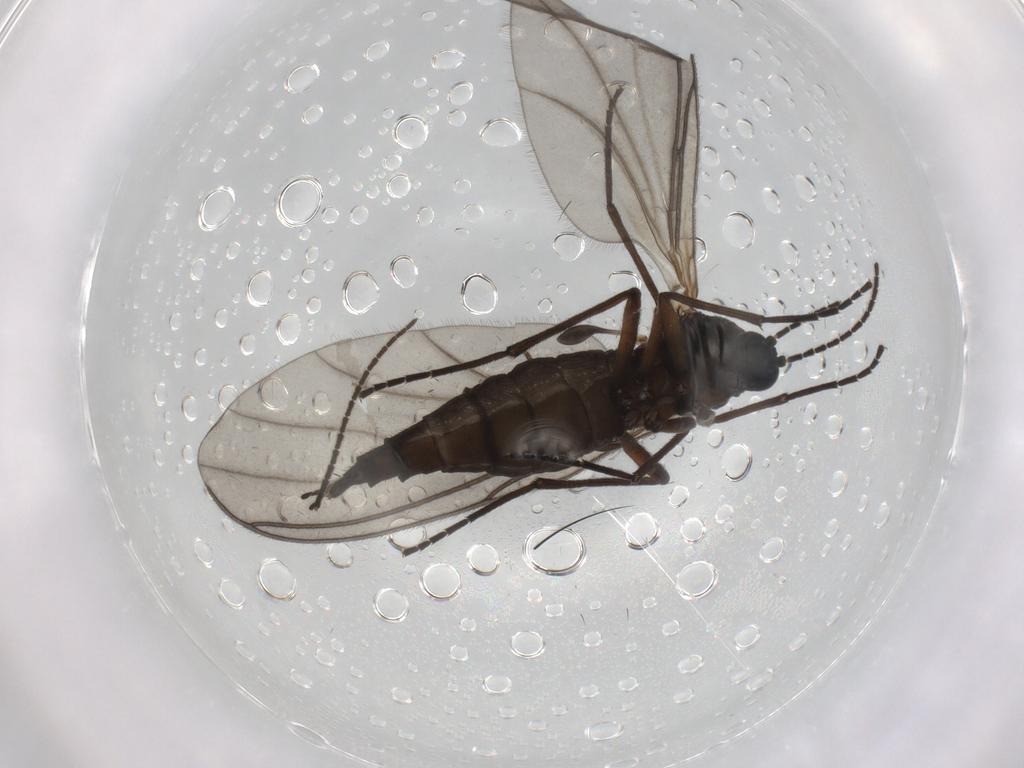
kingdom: Animalia
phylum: Arthropoda
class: Insecta
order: Diptera
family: Sciaridae
